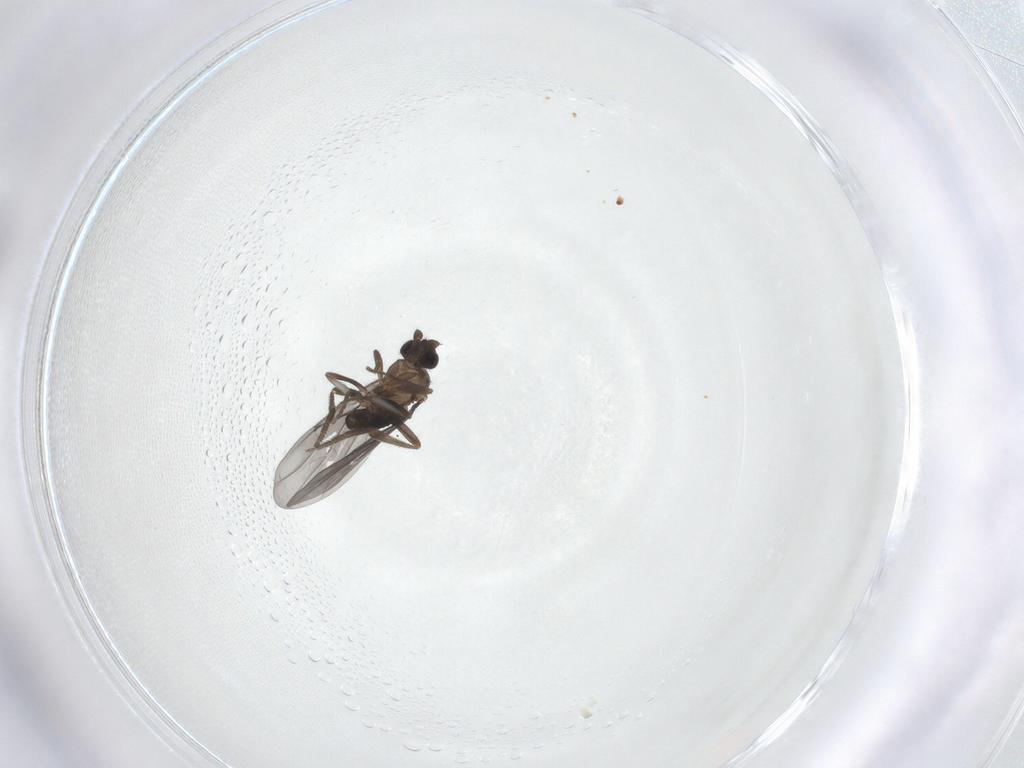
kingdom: Animalia
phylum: Arthropoda
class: Insecta
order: Diptera
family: Phoridae
